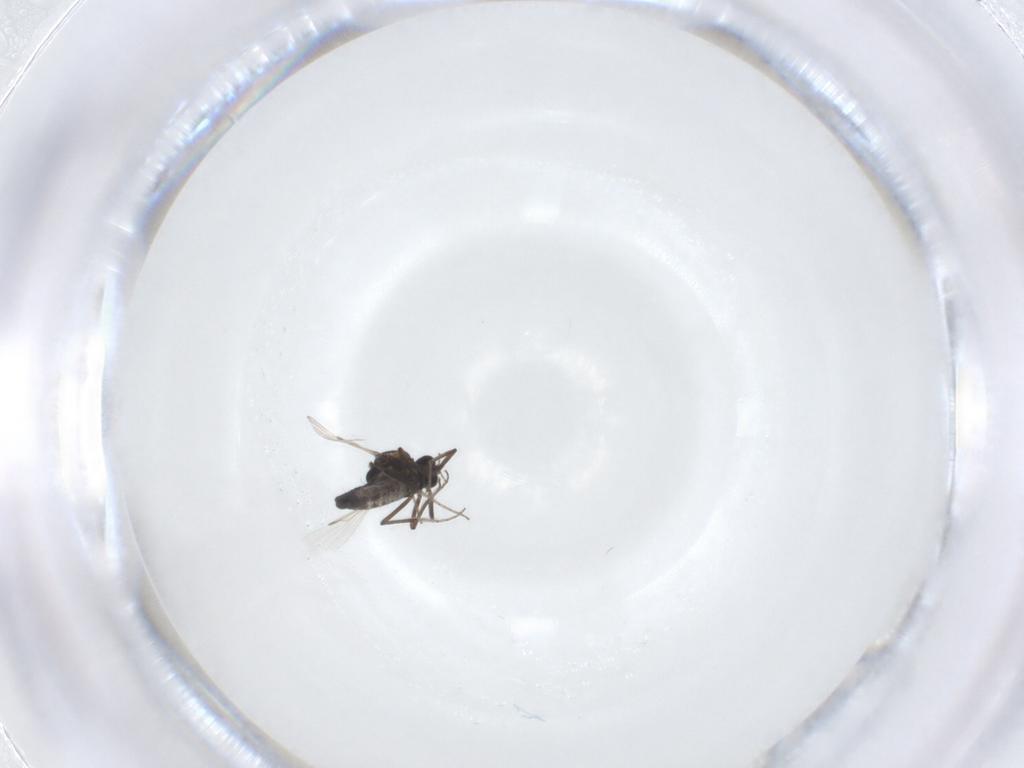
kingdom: Animalia
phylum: Arthropoda
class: Insecta
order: Diptera
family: Ceratopogonidae
